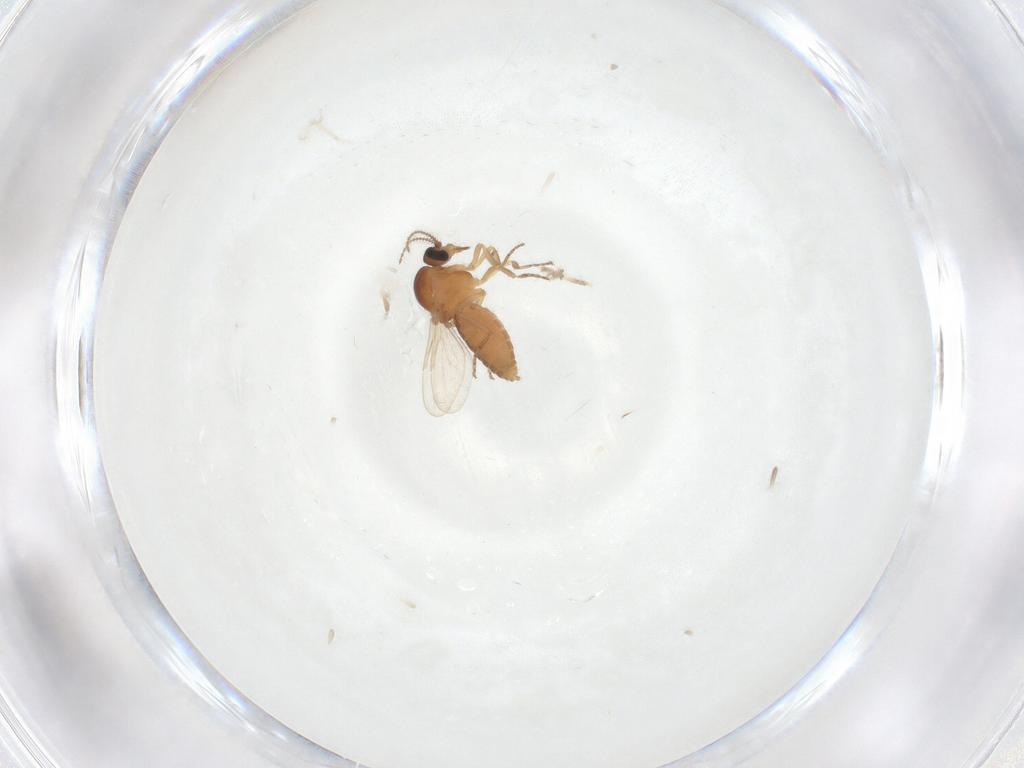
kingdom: Animalia
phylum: Arthropoda
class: Insecta
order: Diptera
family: Ceratopogonidae
